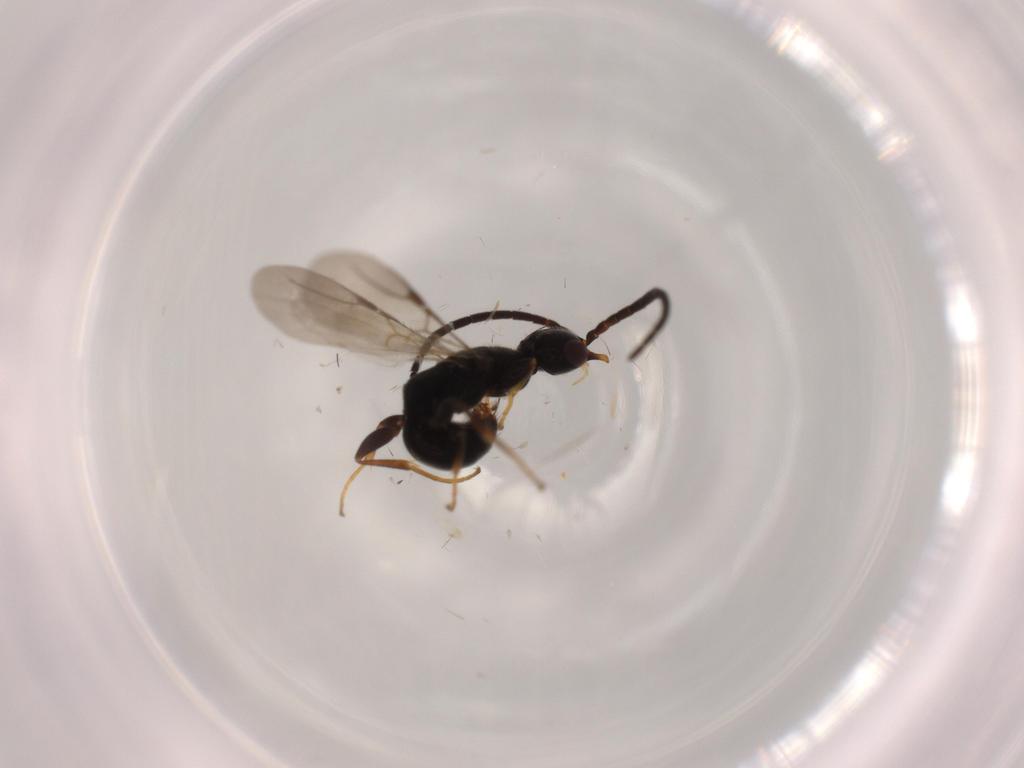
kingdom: Animalia
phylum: Arthropoda
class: Insecta
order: Hymenoptera
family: Bethylidae
